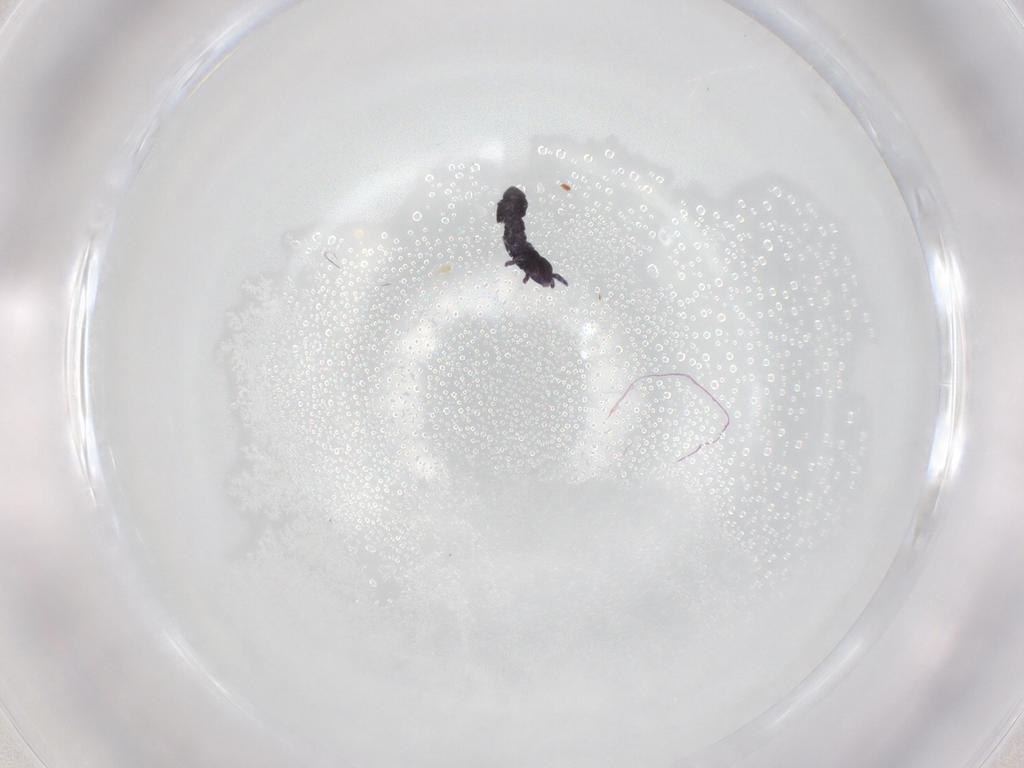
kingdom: Animalia
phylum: Arthropoda
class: Collembola
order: Poduromorpha
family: Hypogastruridae
